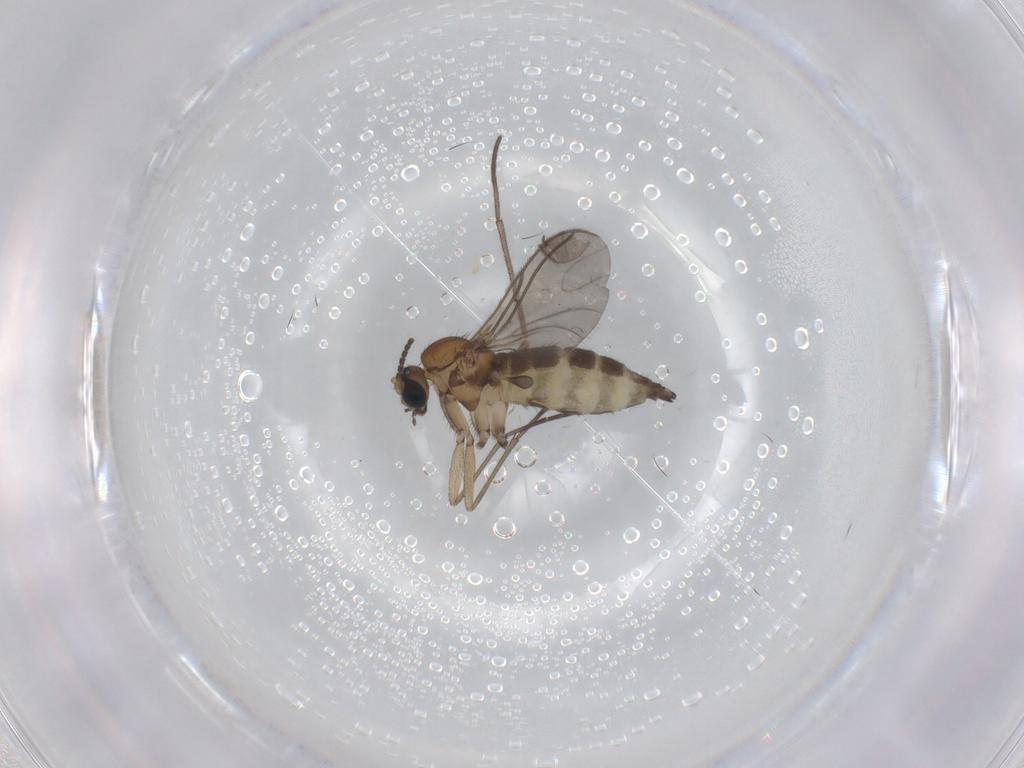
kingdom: Animalia
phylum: Arthropoda
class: Insecta
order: Diptera
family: Sciaridae
